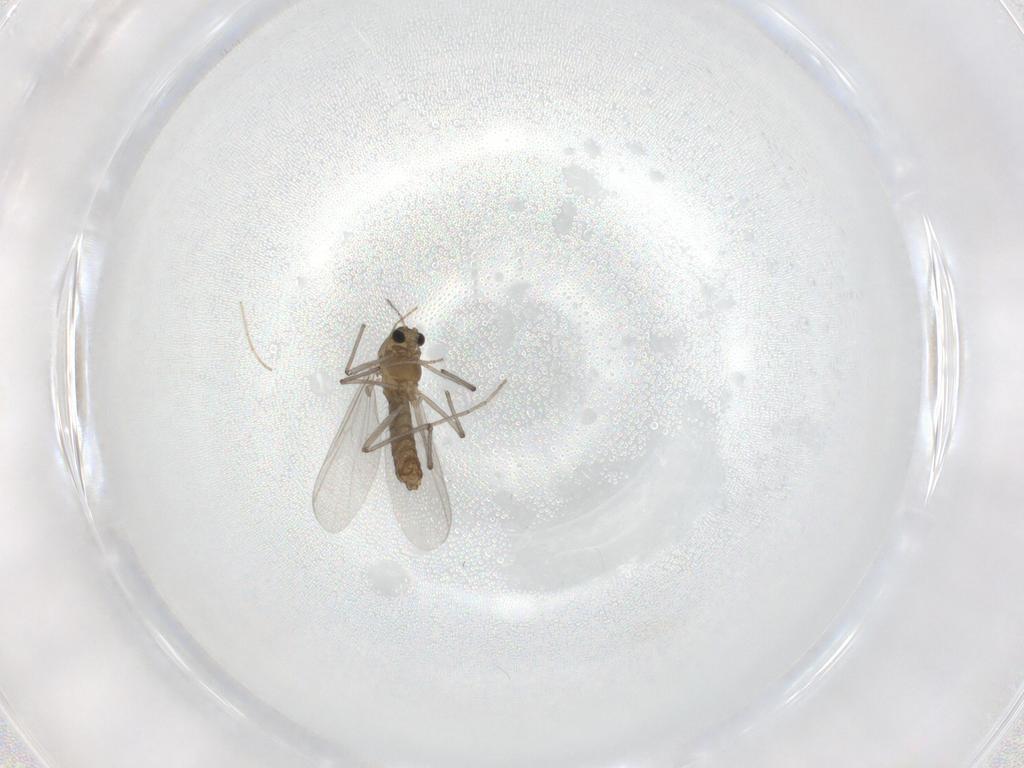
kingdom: Animalia
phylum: Arthropoda
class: Insecta
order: Diptera
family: Chironomidae
